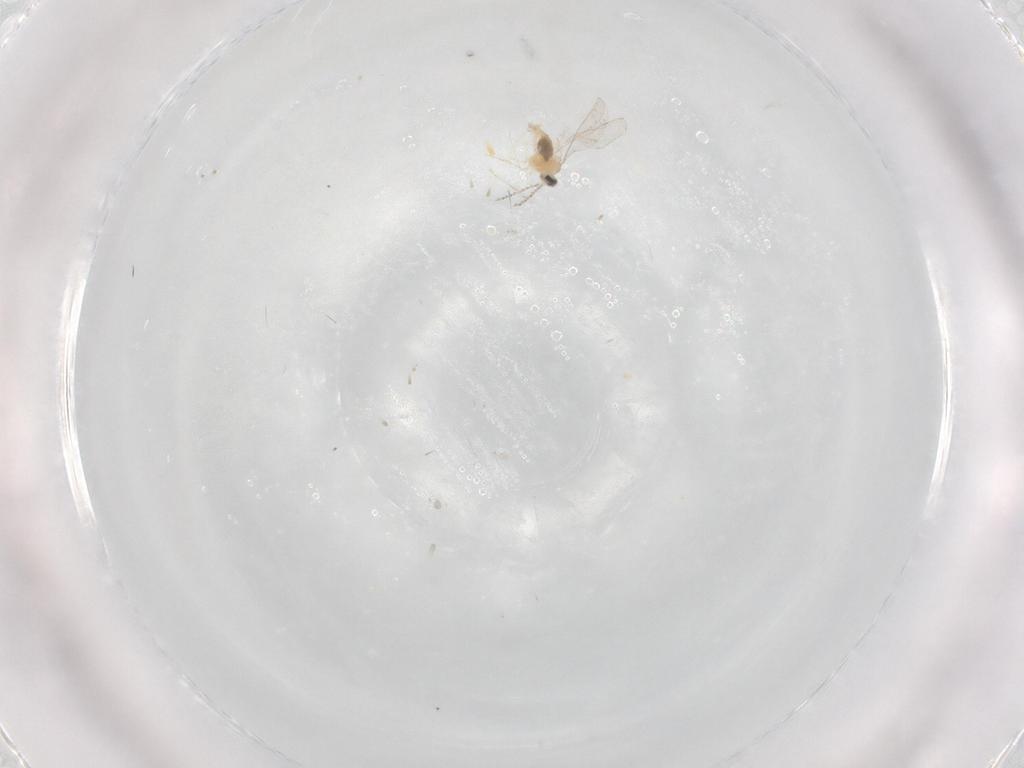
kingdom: Animalia
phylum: Arthropoda
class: Insecta
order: Diptera
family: Cecidomyiidae
